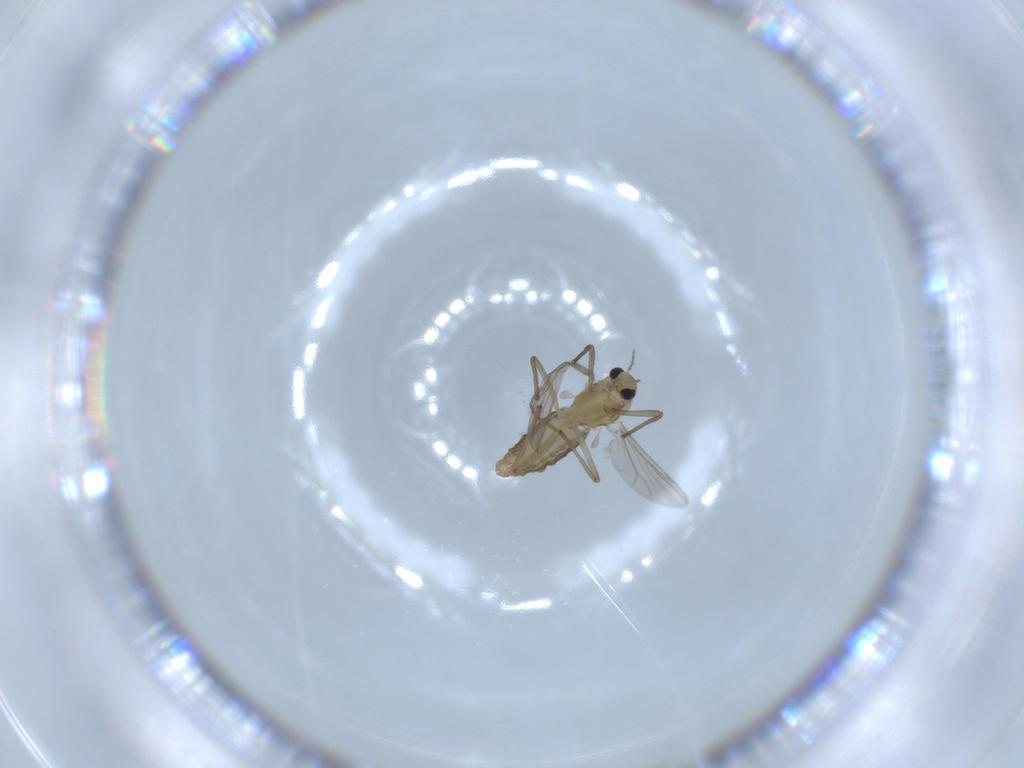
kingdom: Animalia
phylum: Arthropoda
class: Insecta
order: Diptera
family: Chironomidae
